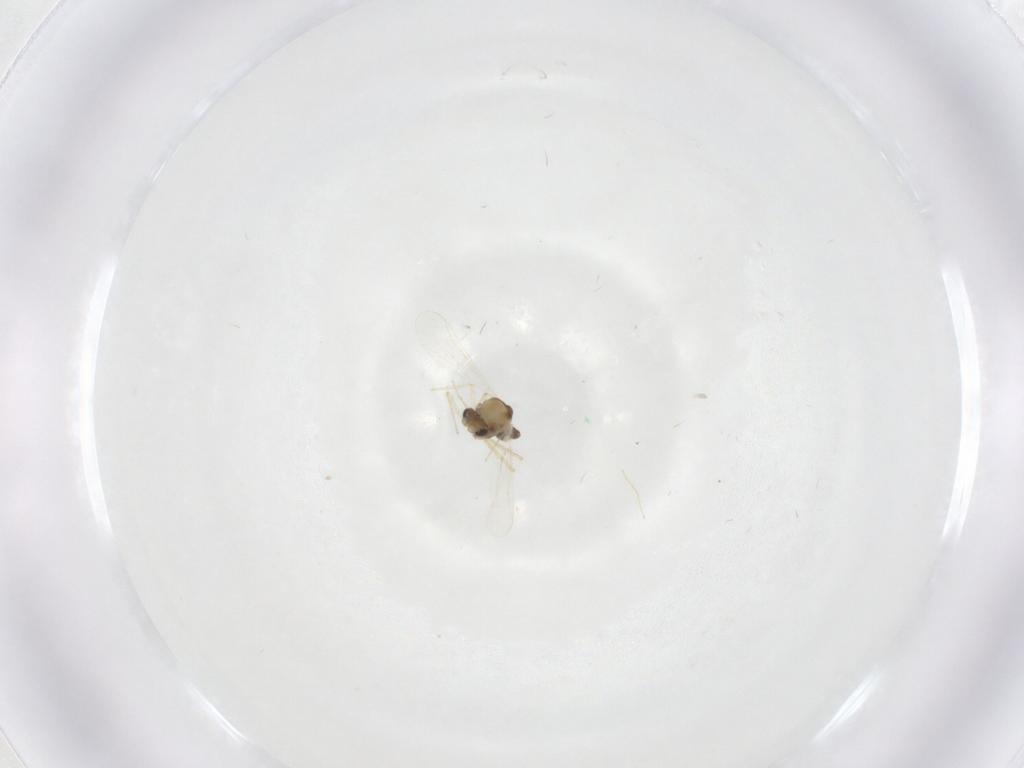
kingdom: Animalia
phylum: Arthropoda
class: Insecta
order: Diptera
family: Chironomidae
